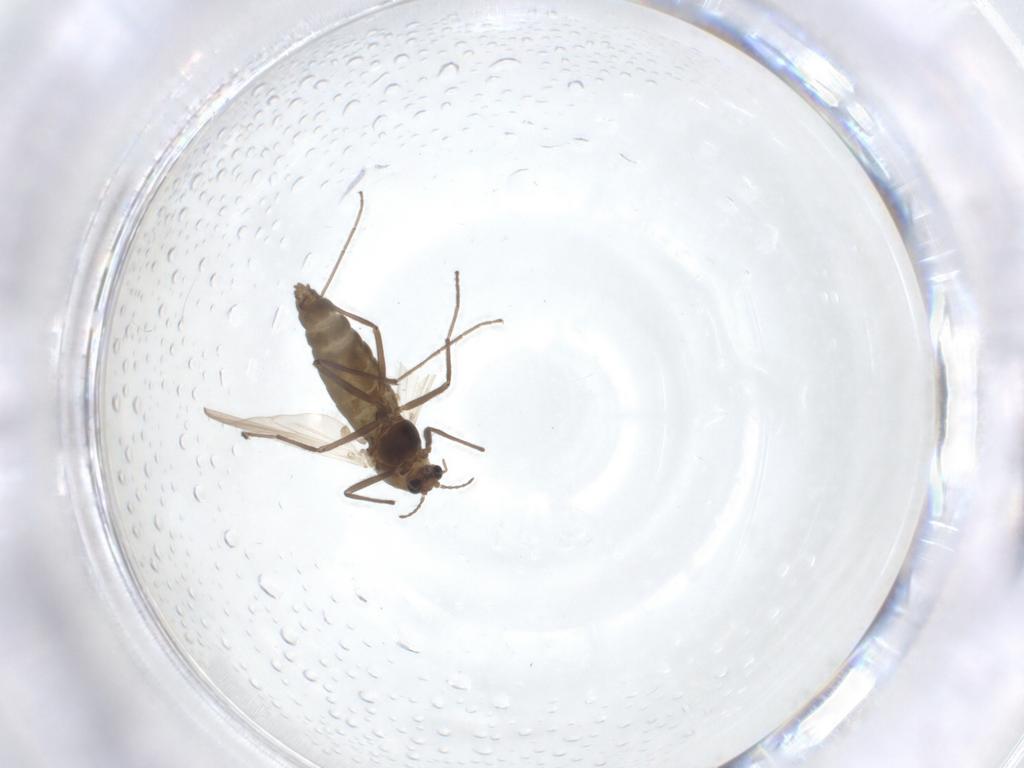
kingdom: Animalia
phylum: Arthropoda
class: Insecta
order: Diptera
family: Chironomidae
